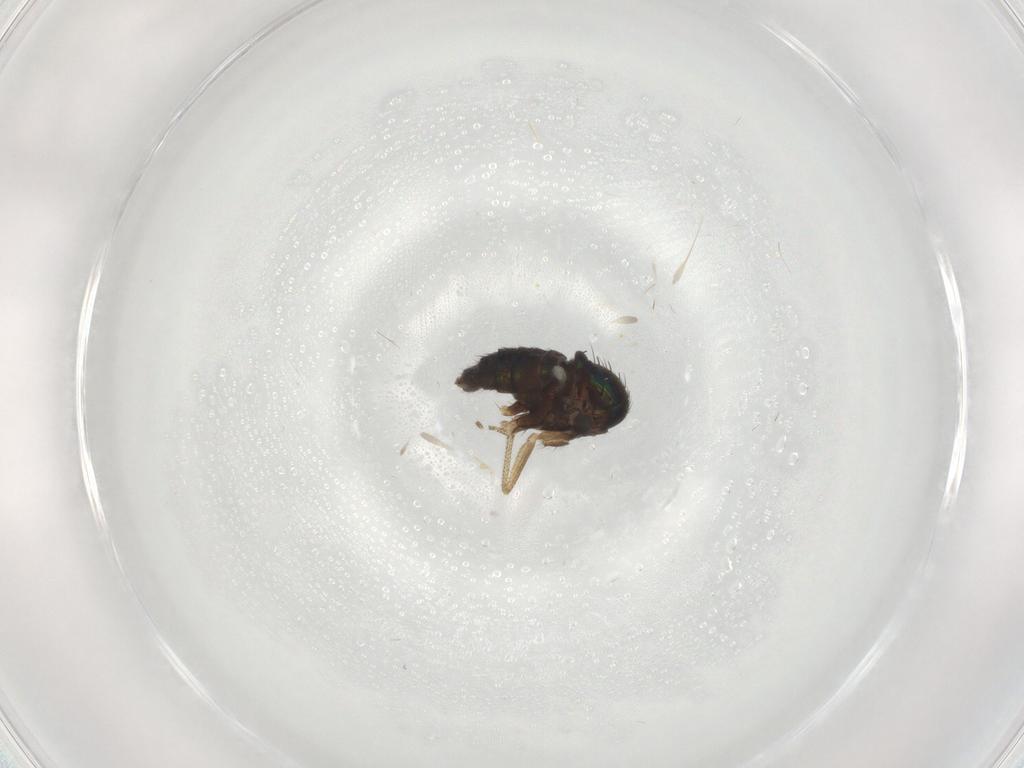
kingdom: Animalia
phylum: Arthropoda
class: Insecta
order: Diptera
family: Dolichopodidae
